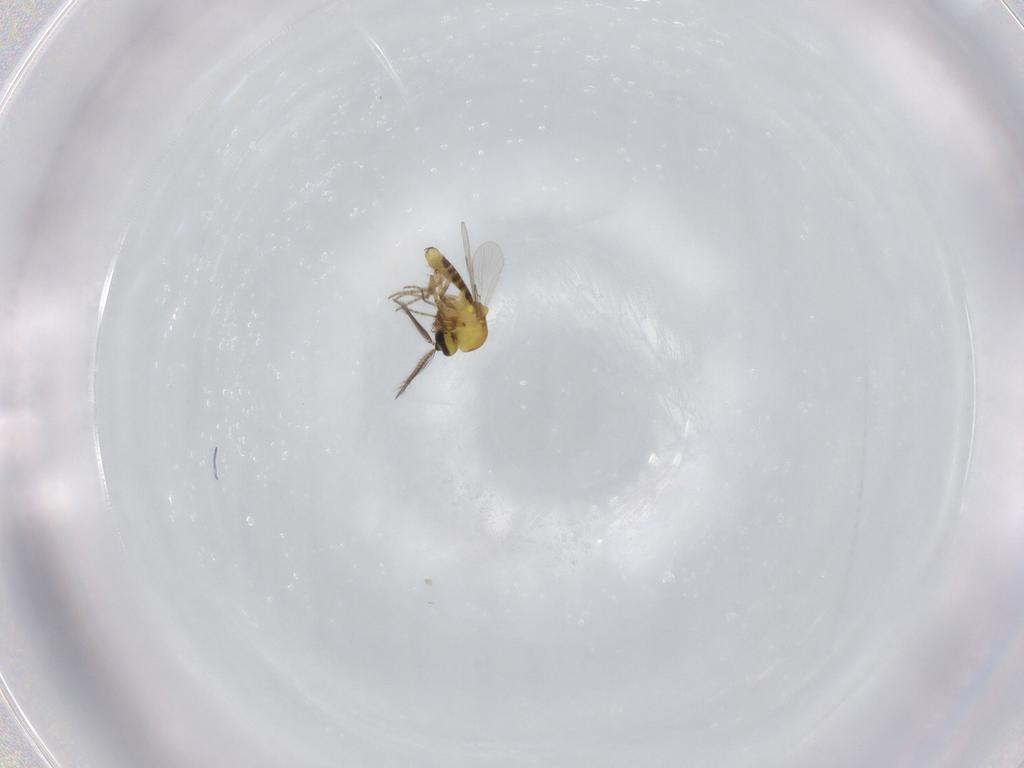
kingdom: Animalia
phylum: Arthropoda
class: Insecta
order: Diptera
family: Ceratopogonidae
